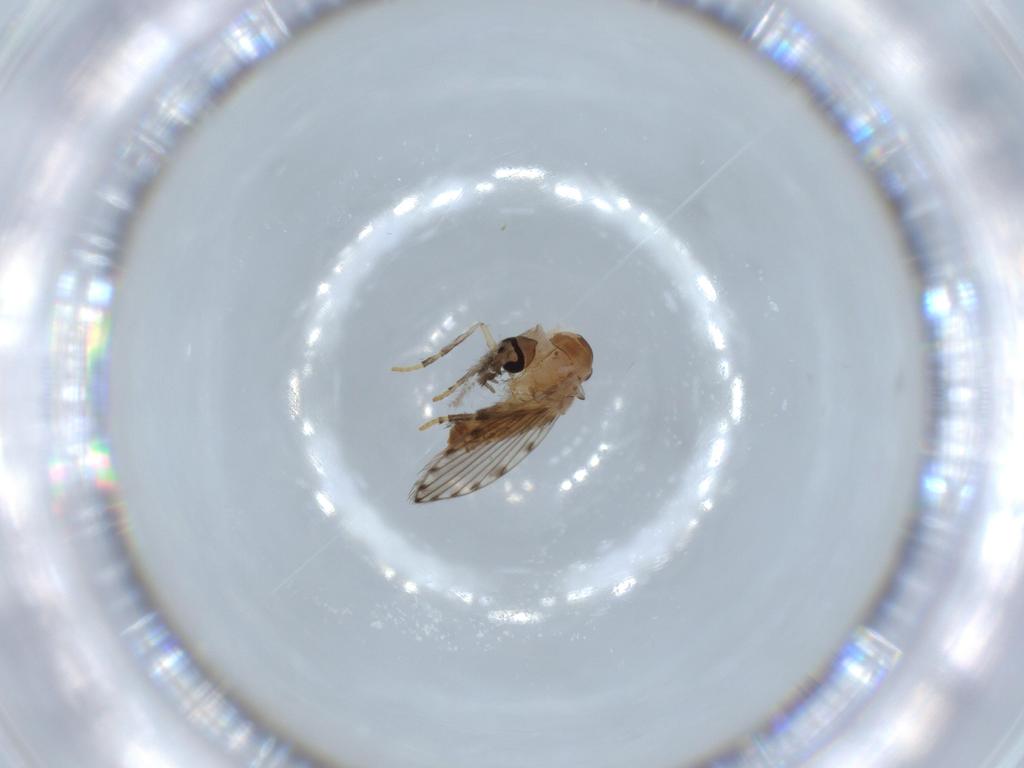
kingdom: Animalia
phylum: Arthropoda
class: Insecta
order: Diptera
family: Psychodidae
